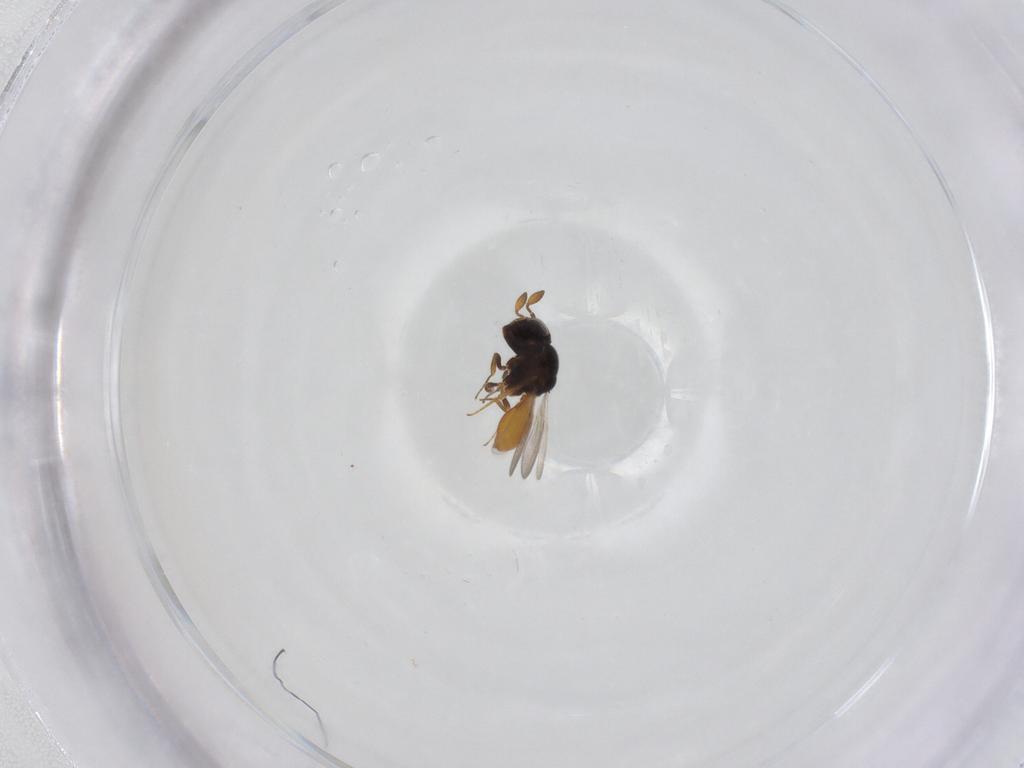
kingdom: Animalia
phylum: Arthropoda
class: Insecta
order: Hymenoptera
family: Scelionidae
